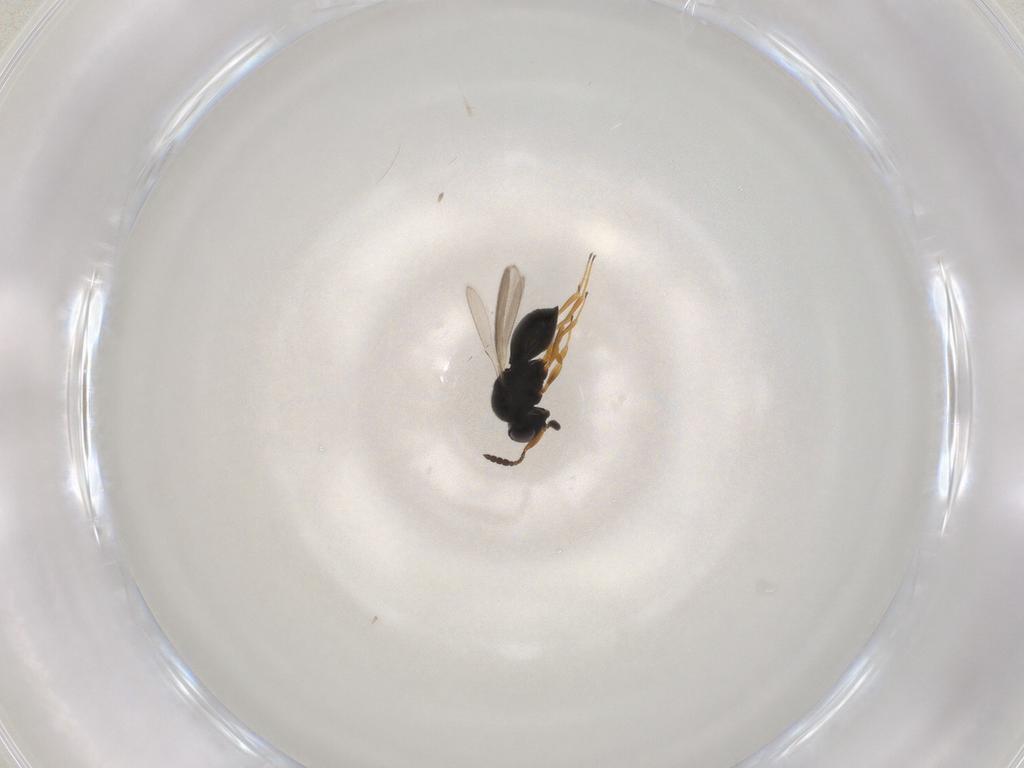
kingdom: Animalia
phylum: Arthropoda
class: Insecta
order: Hymenoptera
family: Scelionidae
